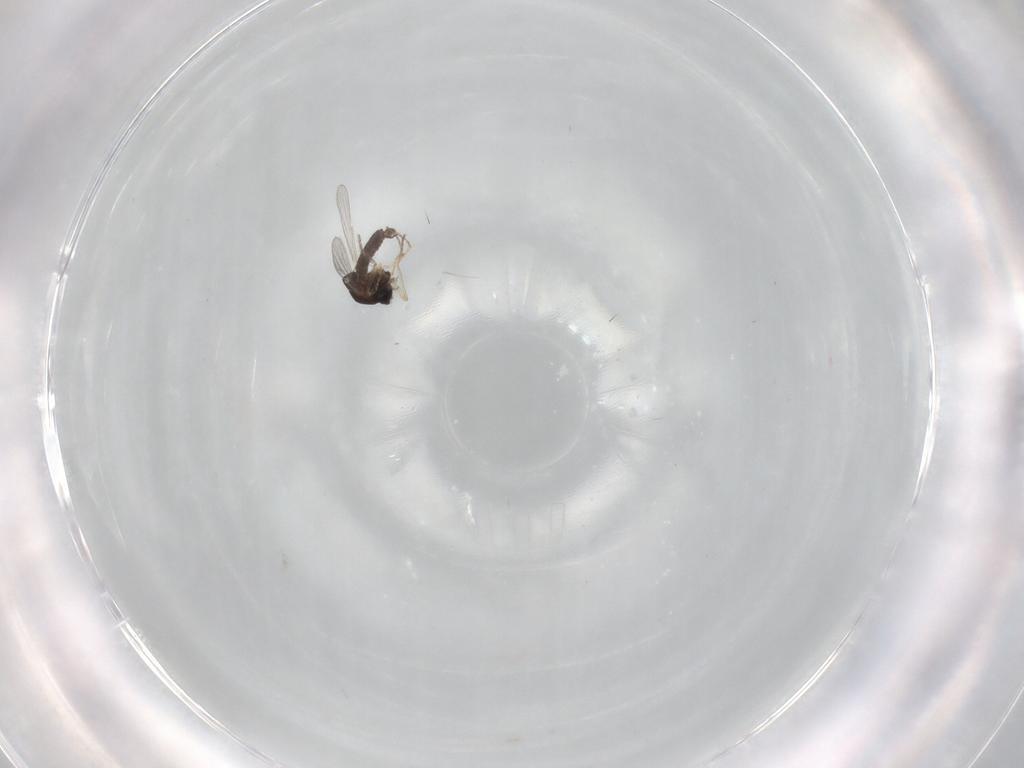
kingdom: Animalia
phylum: Arthropoda
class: Insecta
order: Diptera
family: Ceratopogonidae
